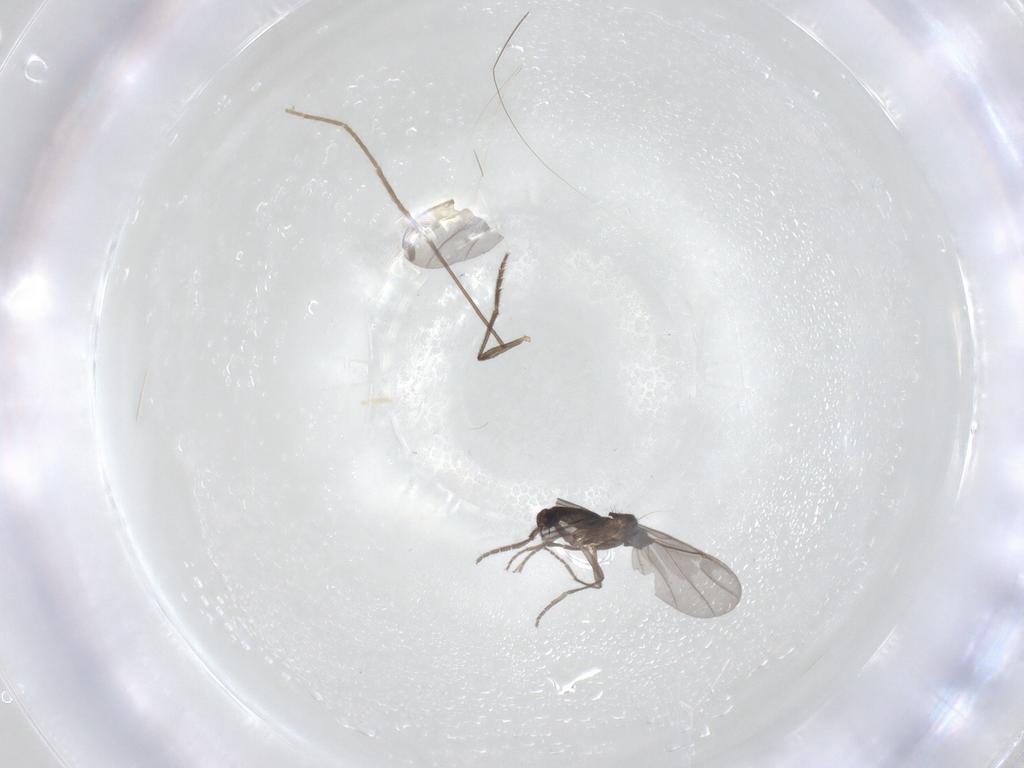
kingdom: Animalia
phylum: Arthropoda
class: Insecta
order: Diptera
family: Phoridae
